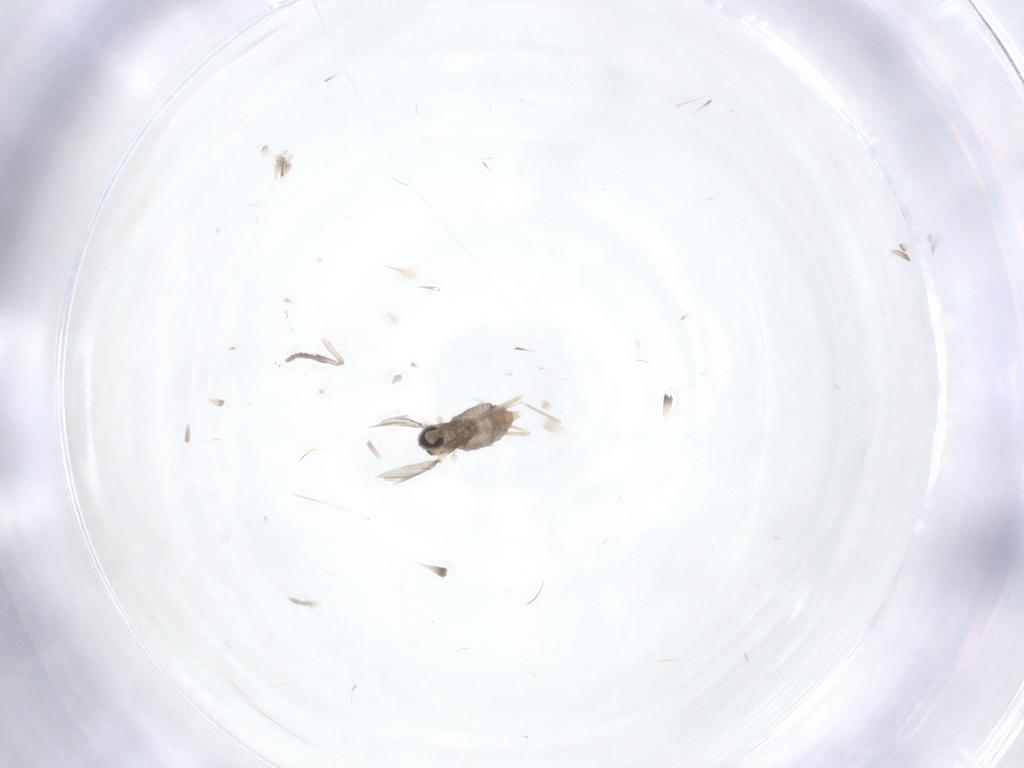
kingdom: Animalia
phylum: Arthropoda
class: Insecta
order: Diptera
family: Cecidomyiidae
